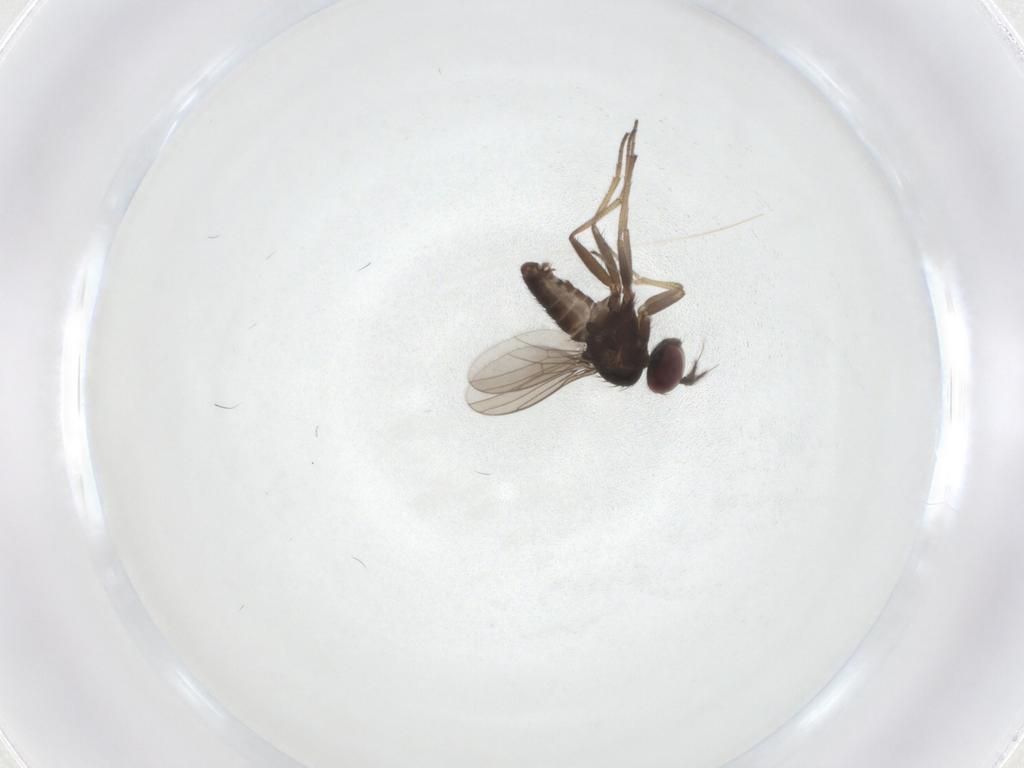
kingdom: Animalia
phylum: Arthropoda
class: Insecta
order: Diptera
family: Dolichopodidae
